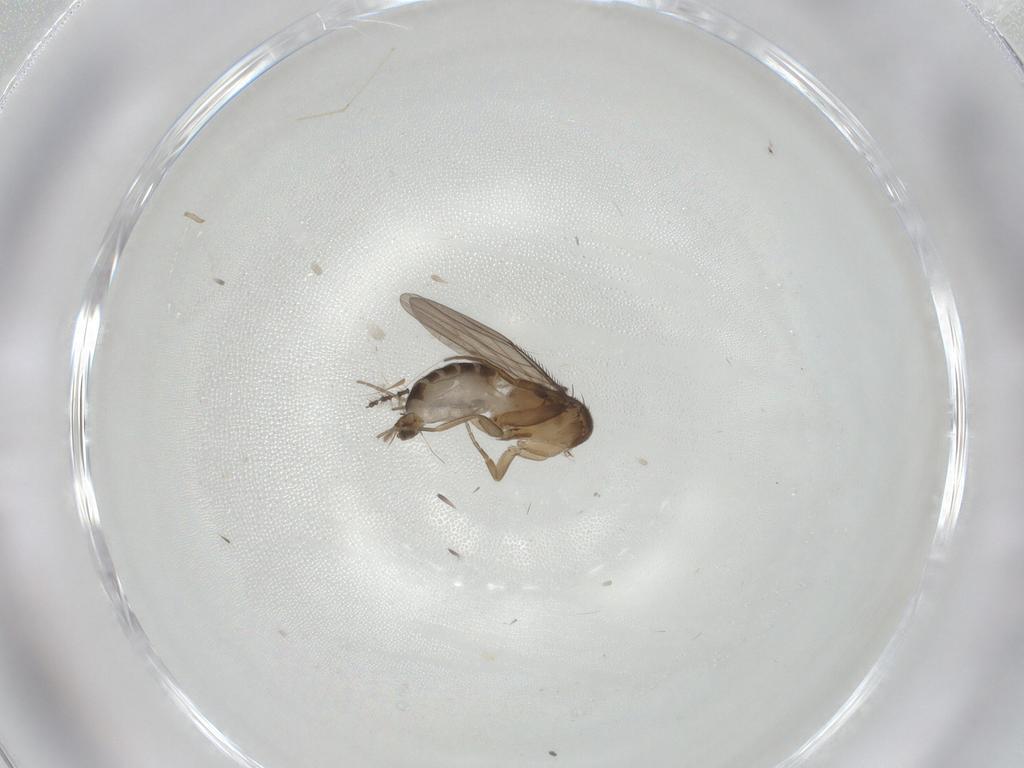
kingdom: Animalia
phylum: Arthropoda
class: Insecta
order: Diptera
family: Phoridae
